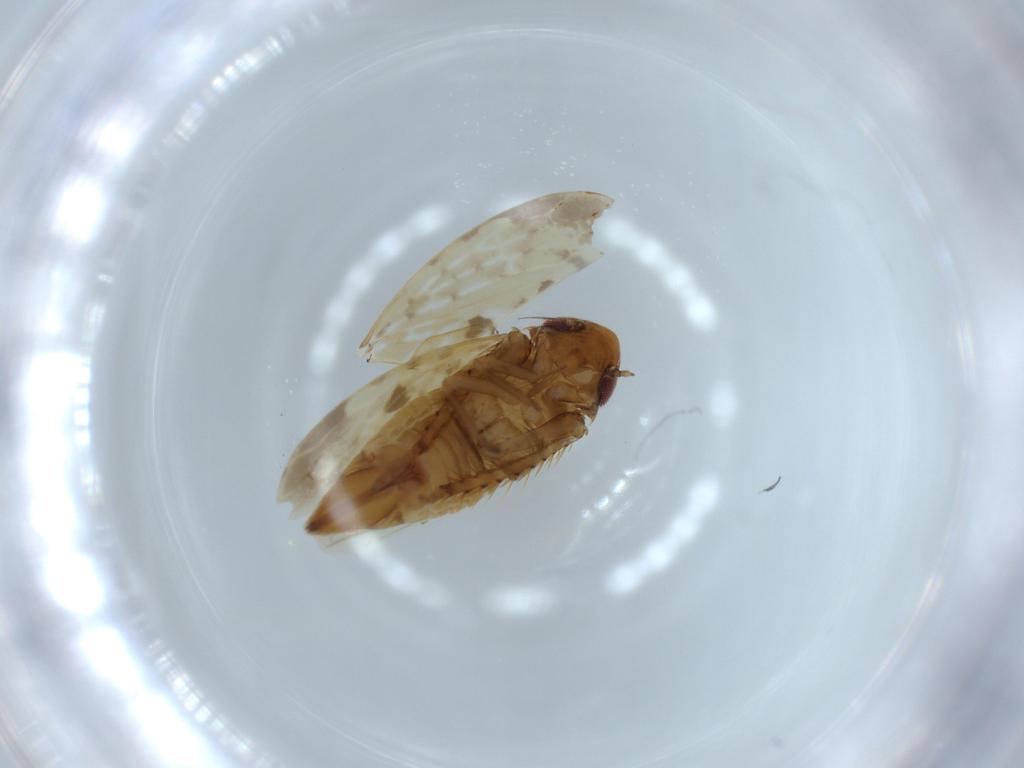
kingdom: Animalia
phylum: Arthropoda
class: Insecta
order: Hemiptera
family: Cicadellidae
